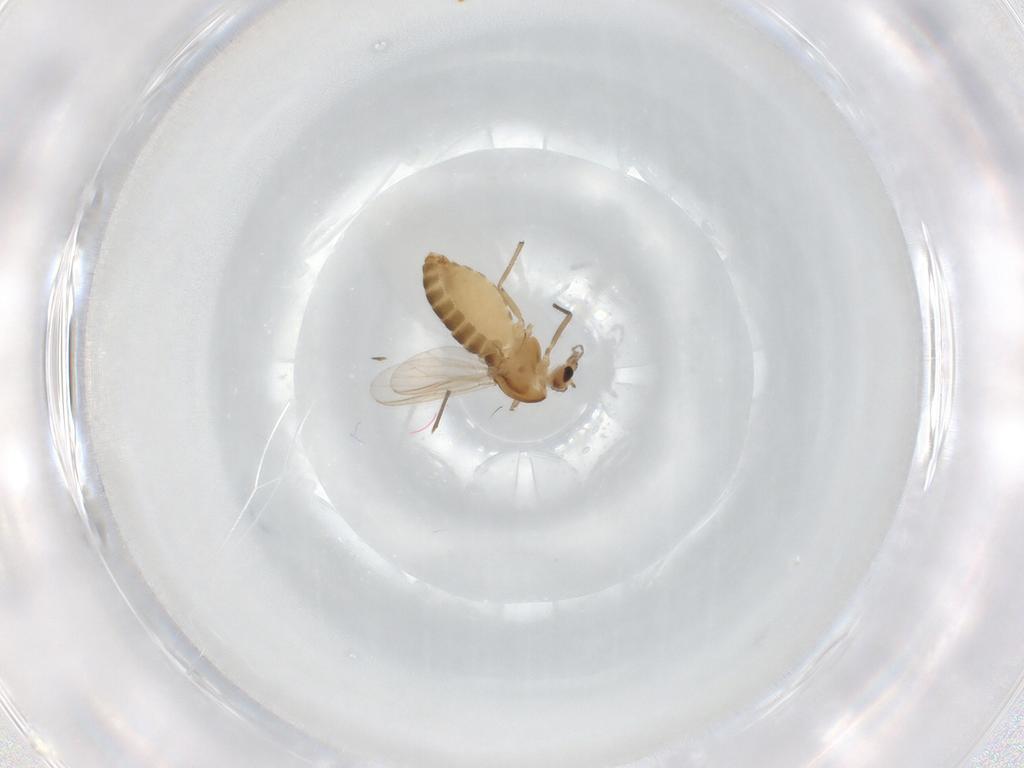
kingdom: Animalia
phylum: Arthropoda
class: Insecta
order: Diptera
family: Chironomidae
